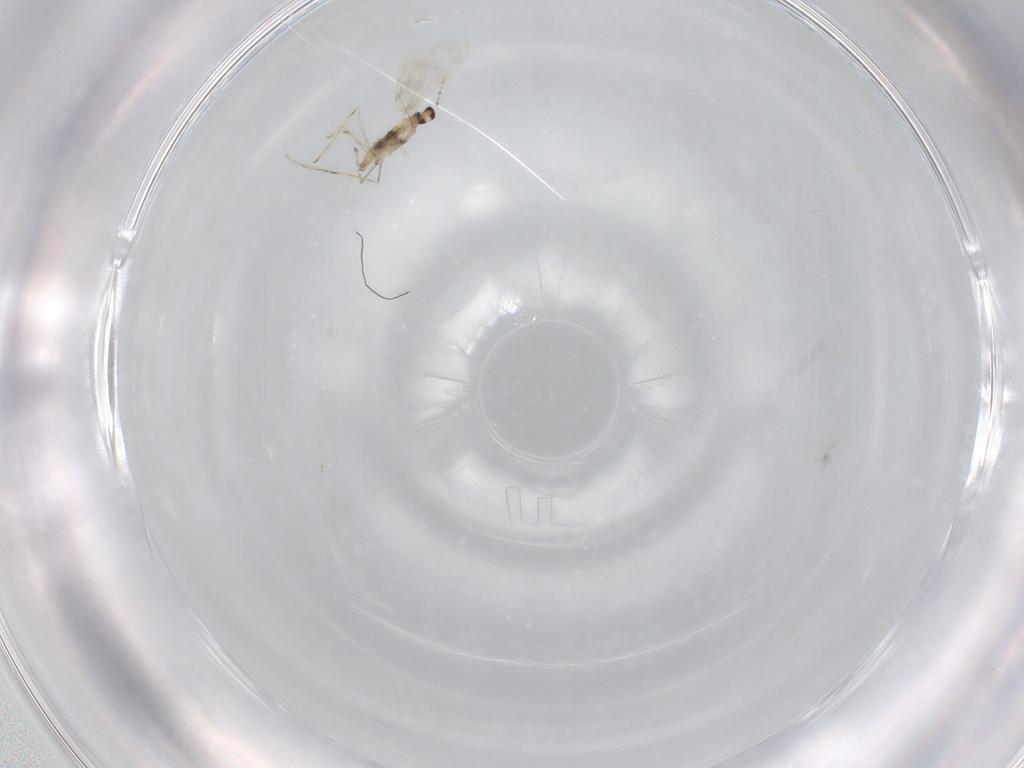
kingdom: Animalia
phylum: Arthropoda
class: Insecta
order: Diptera
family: Cecidomyiidae
